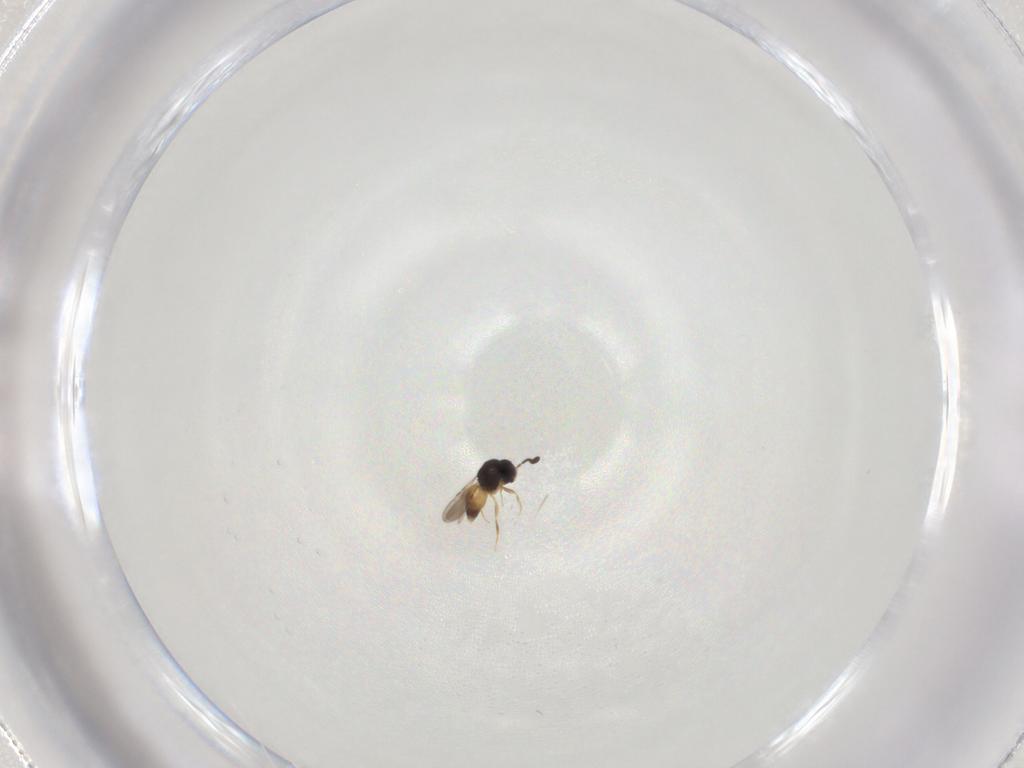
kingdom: Animalia
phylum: Arthropoda
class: Insecta
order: Hymenoptera
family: Ceraphronidae
